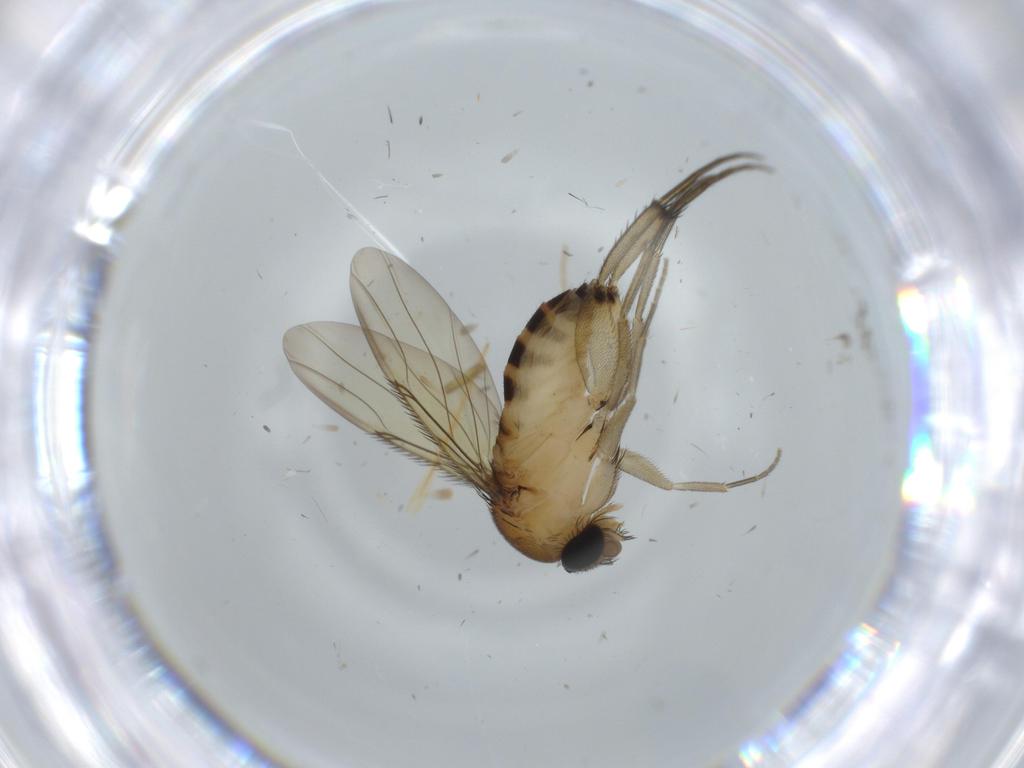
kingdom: Animalia
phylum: Arthropoda
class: Insecta
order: Diptera
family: Phoridae
